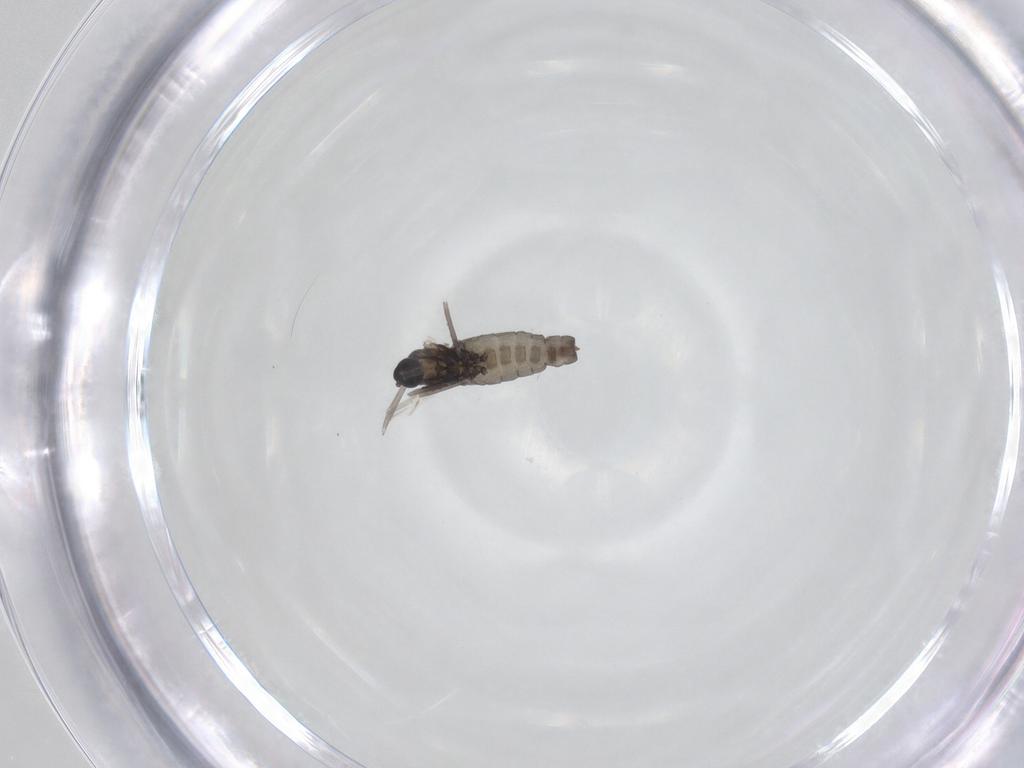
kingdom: Animalia
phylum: Arthropoda
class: Insecta
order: Diptera
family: Cecidomyiidae
